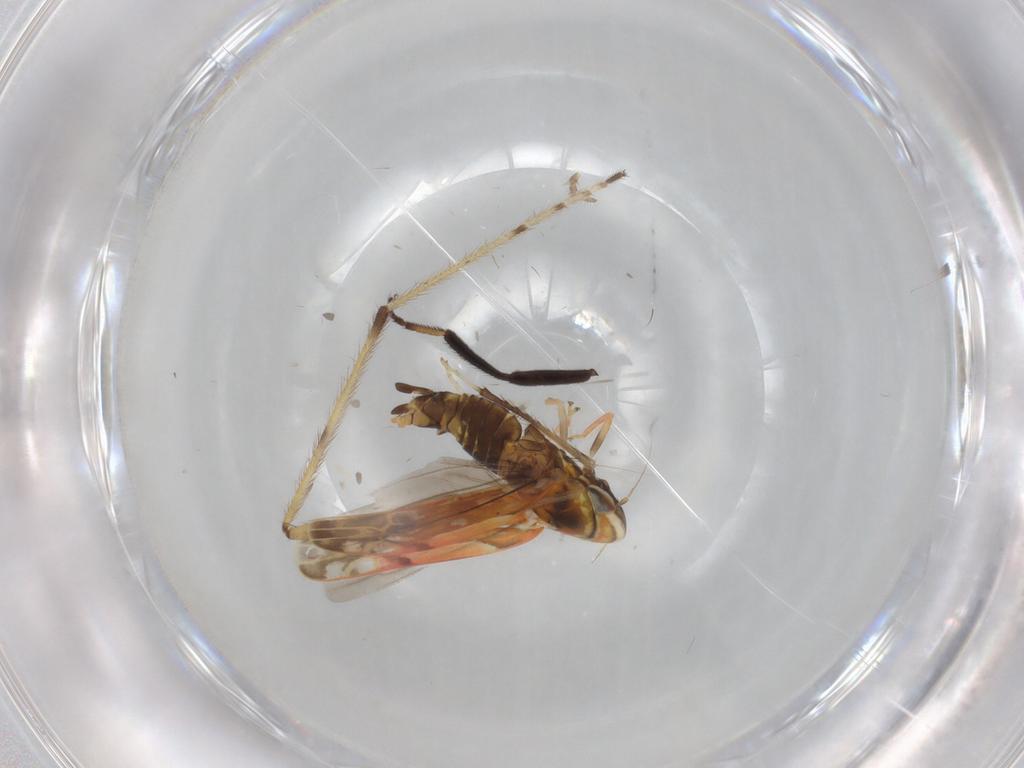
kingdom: Animalia
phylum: Arthropoda
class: Insecta
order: Hemiptera
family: Cicadellidae
